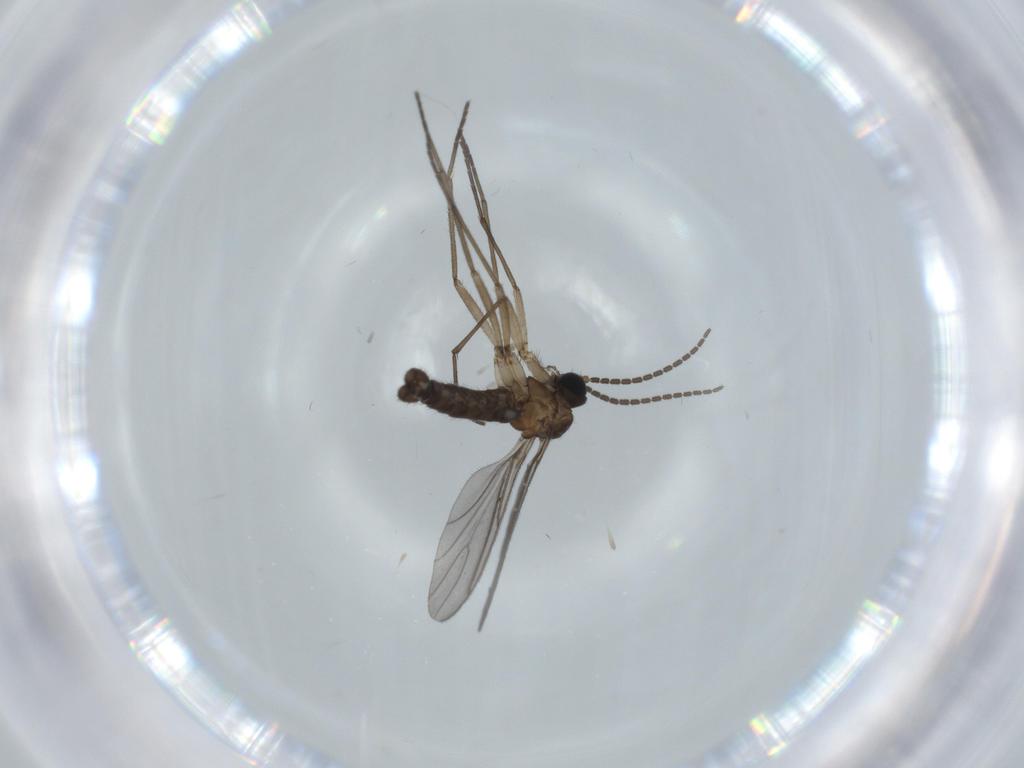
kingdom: Animalia
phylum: Arthropoda
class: Insecta
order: Diptera
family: Sciaridae
